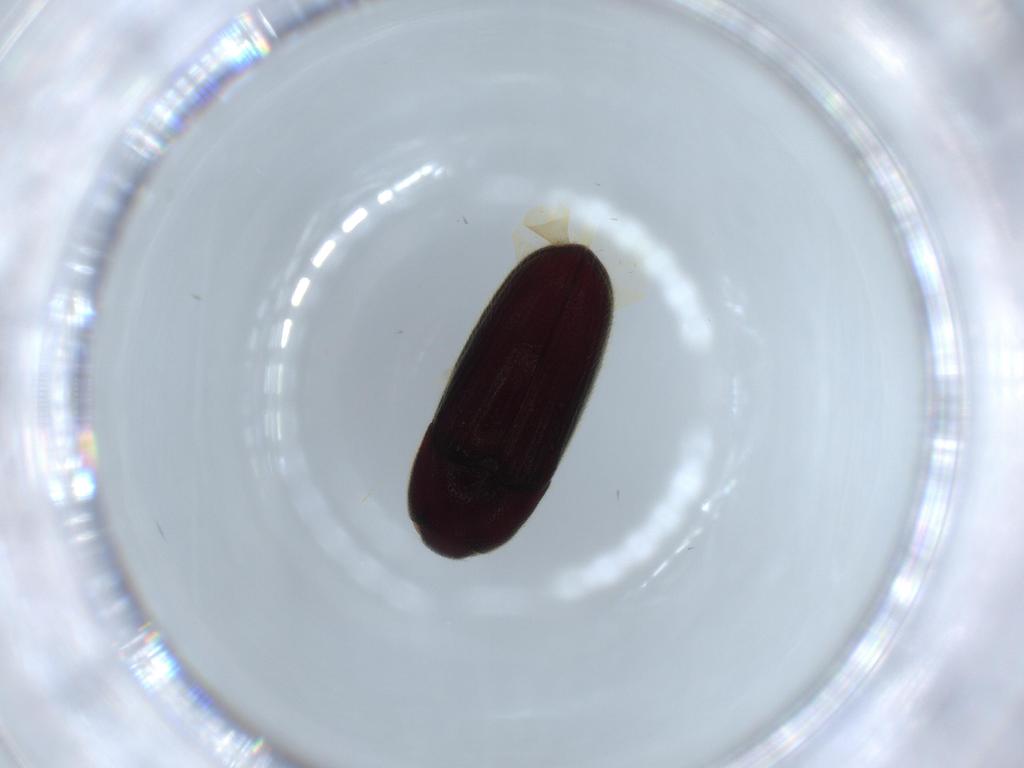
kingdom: Animalia
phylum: Arthropoda
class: Insecta
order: Coleoptera
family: Throscidae
